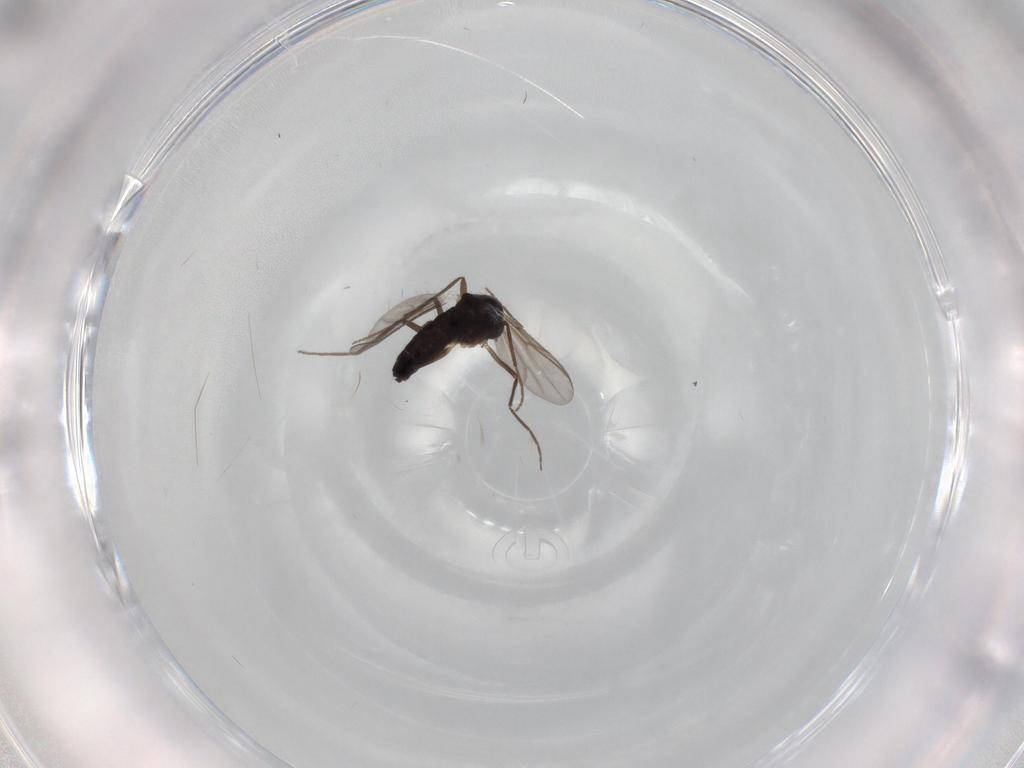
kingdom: Animalia
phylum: Arthropoda
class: Insecta
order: Diptera
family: Chironomidae
